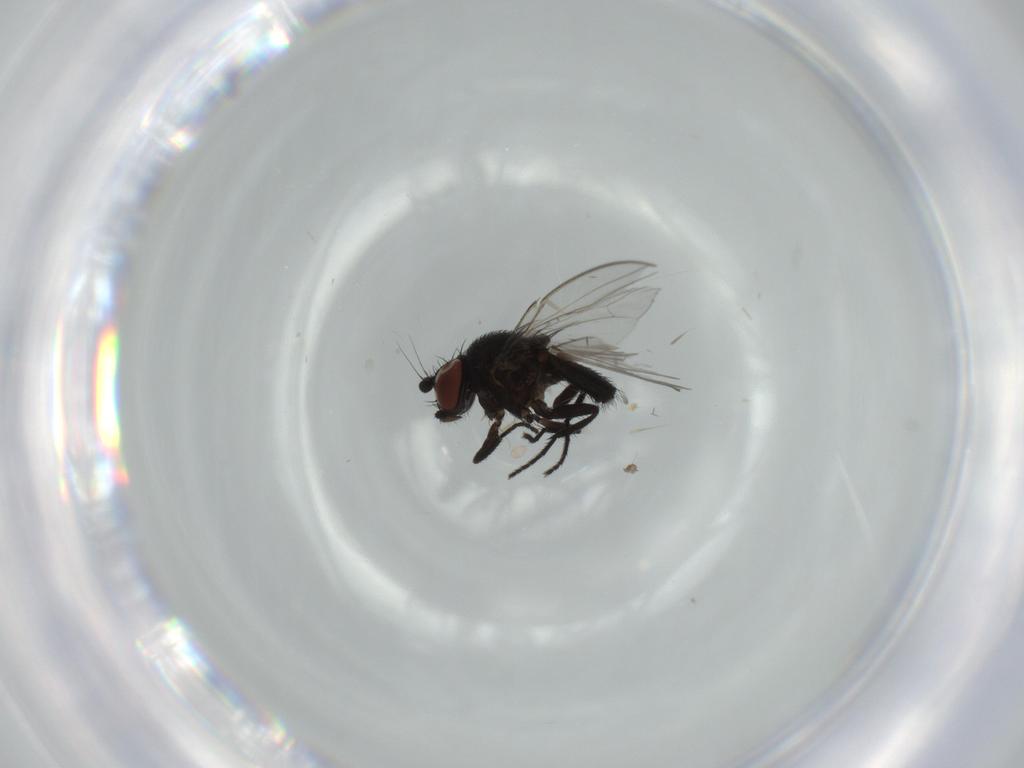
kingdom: Animalia
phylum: Arthropoda
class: Insecta
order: Diptera
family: Milichiidae
